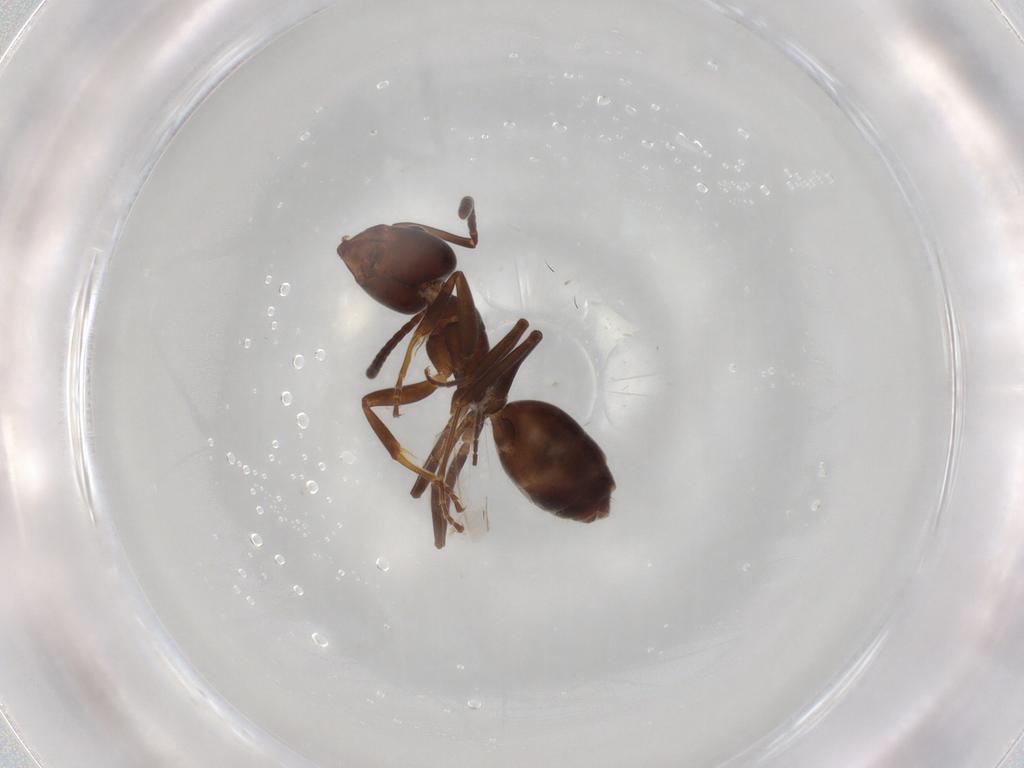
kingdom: Animalia
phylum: Arthropoda
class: Insecta
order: Hymenoptera
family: Formicidae
